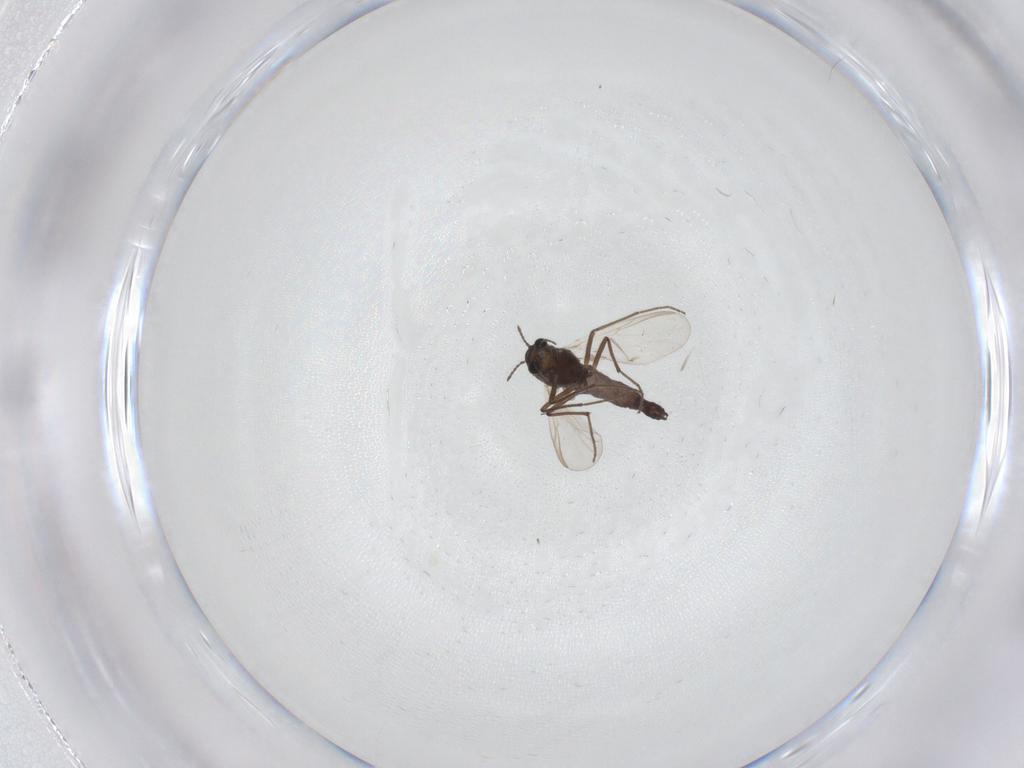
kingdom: Animalia
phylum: Arthropoda
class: Insecta
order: Diptera
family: Chironomidae
